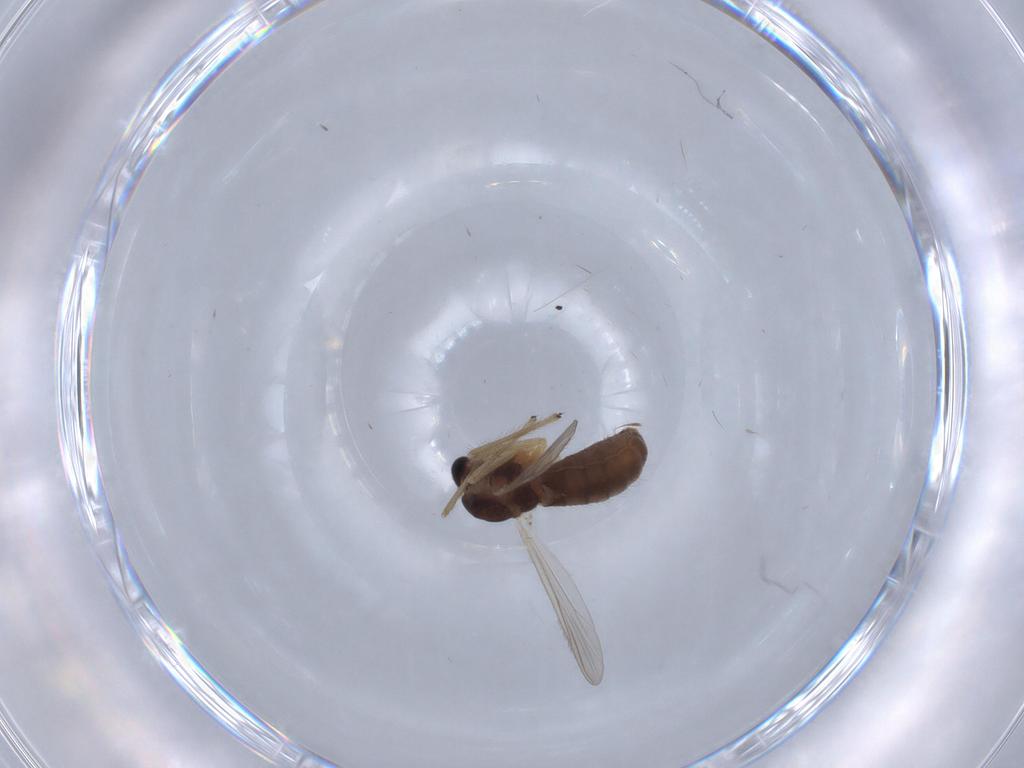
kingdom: Animalia
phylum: Arthropoda
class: Insecta
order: Diptera
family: Chironomidae
